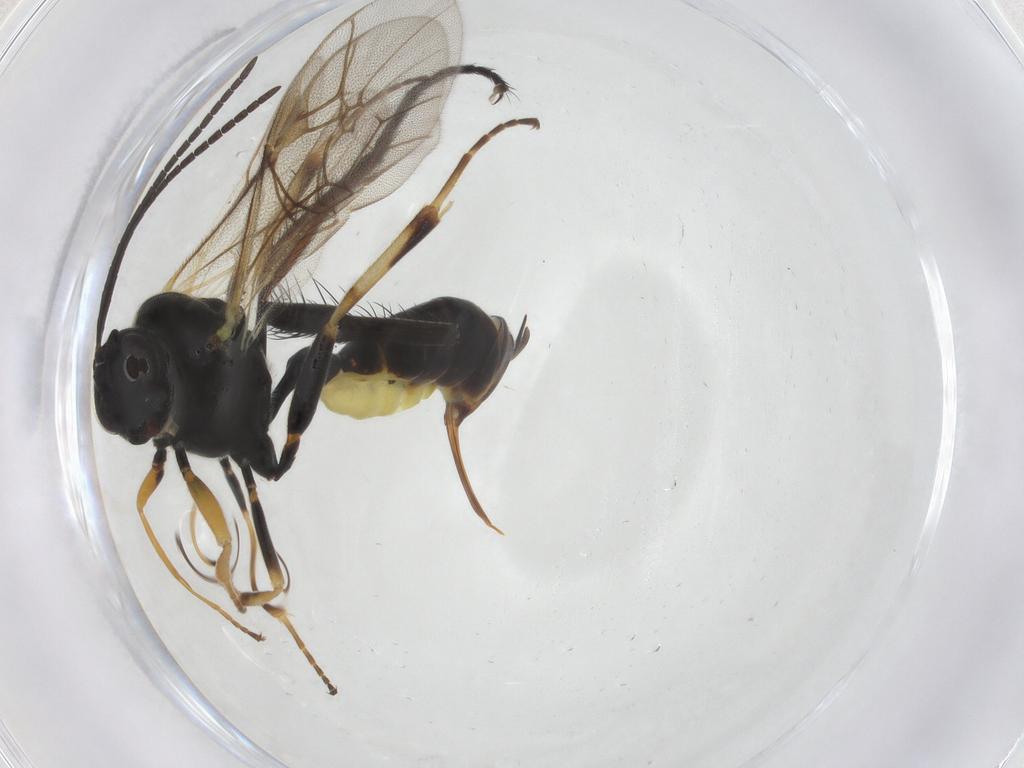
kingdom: Animalia
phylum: Arthropoda
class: Insecta
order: Hymenoptera
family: Ichneumonidae
